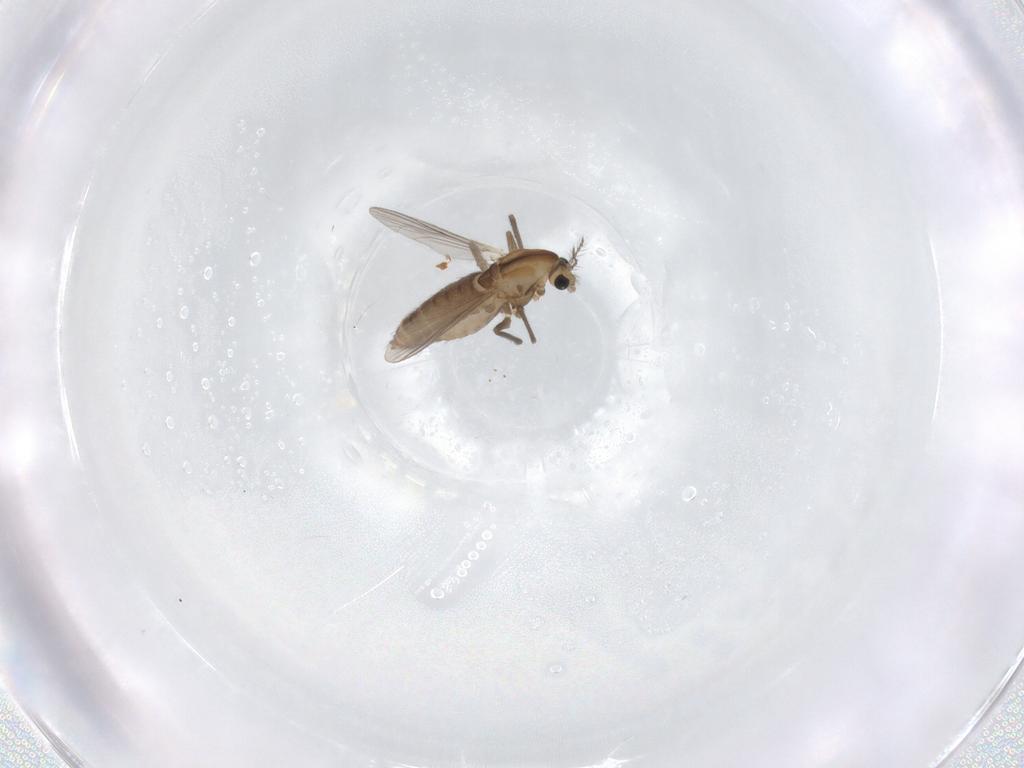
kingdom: Animalia
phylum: Arthropoda
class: Insecta
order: Diptera
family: Chironomidae
